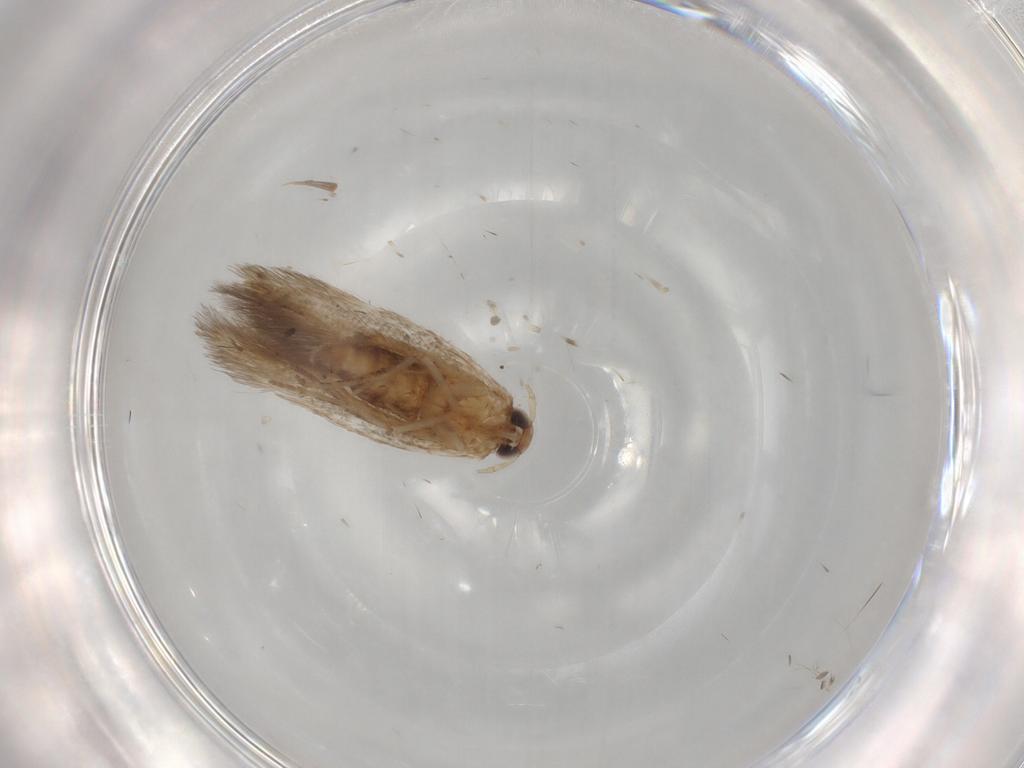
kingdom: Animalia
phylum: Arthropoda
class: Insecta
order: Lepidoptera
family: Cosmopterigidae
